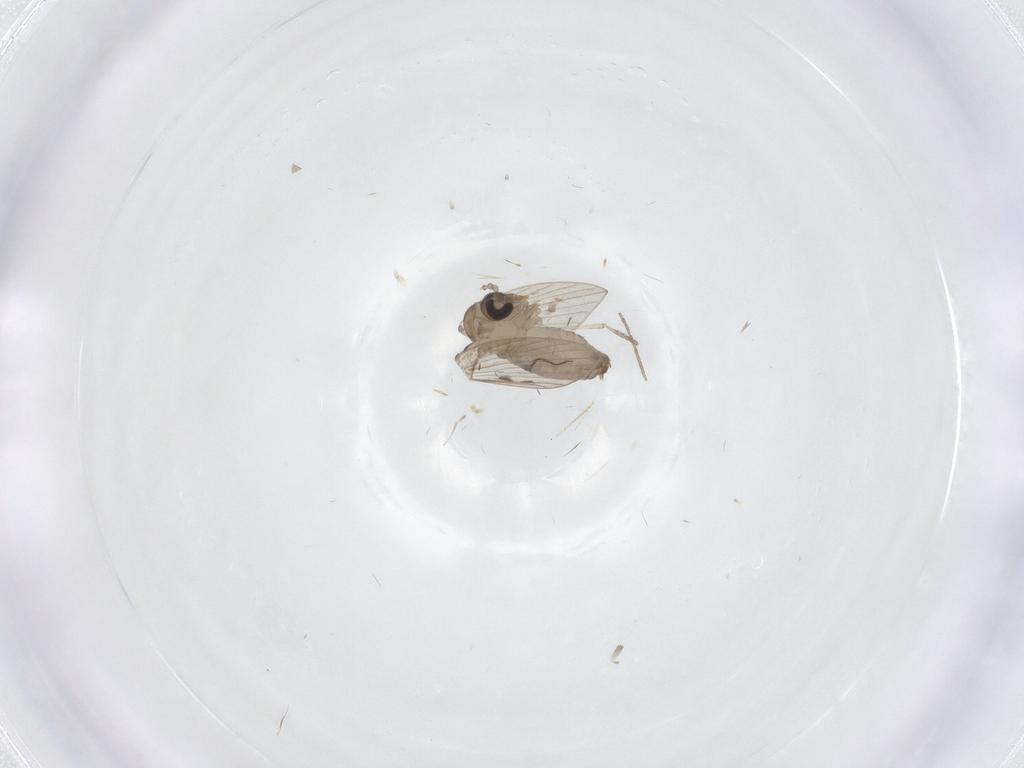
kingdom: Animalia
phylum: Arthropoda
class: Insecta
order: Diptera
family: Psychodidae
